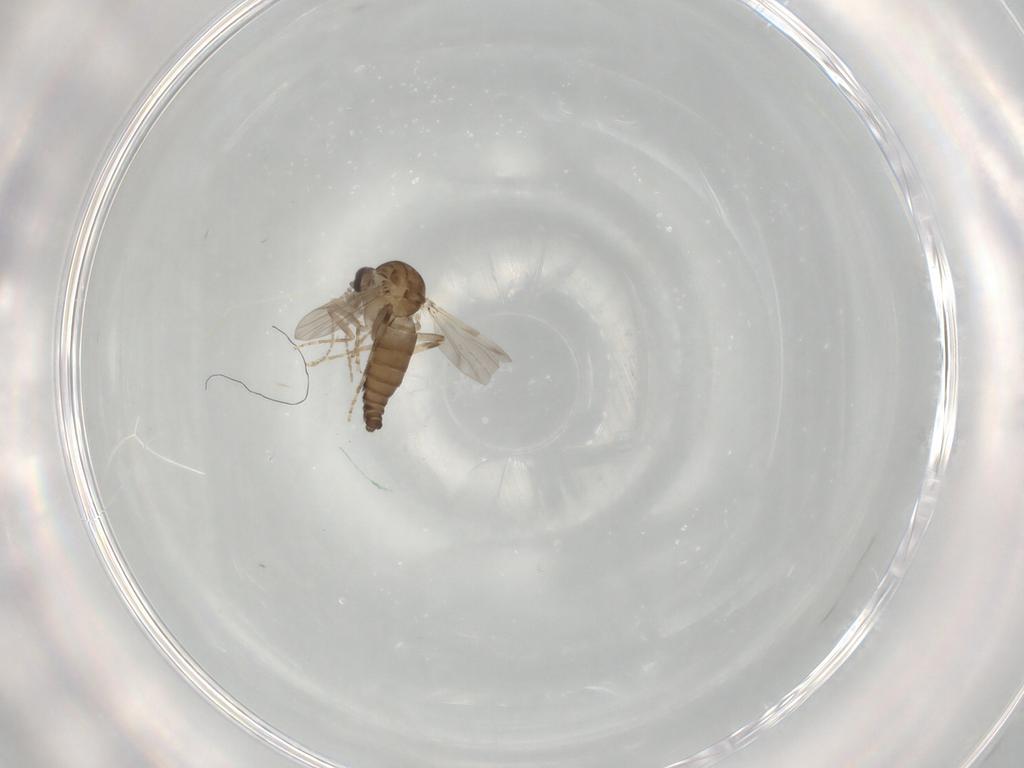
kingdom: Animalia
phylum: Arthropoda
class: Insecta
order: Diptera
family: Ceratopogonidae
